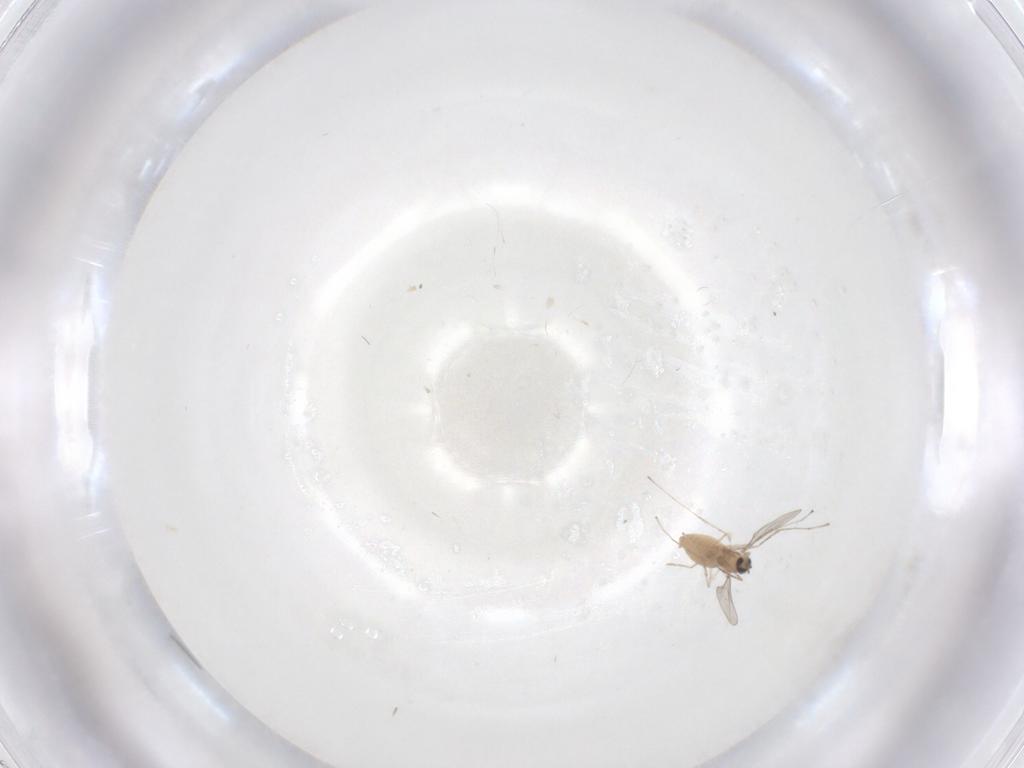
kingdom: Animalia
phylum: Arthropoda
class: Insecta
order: Diptera
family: Cecidomyiidae
